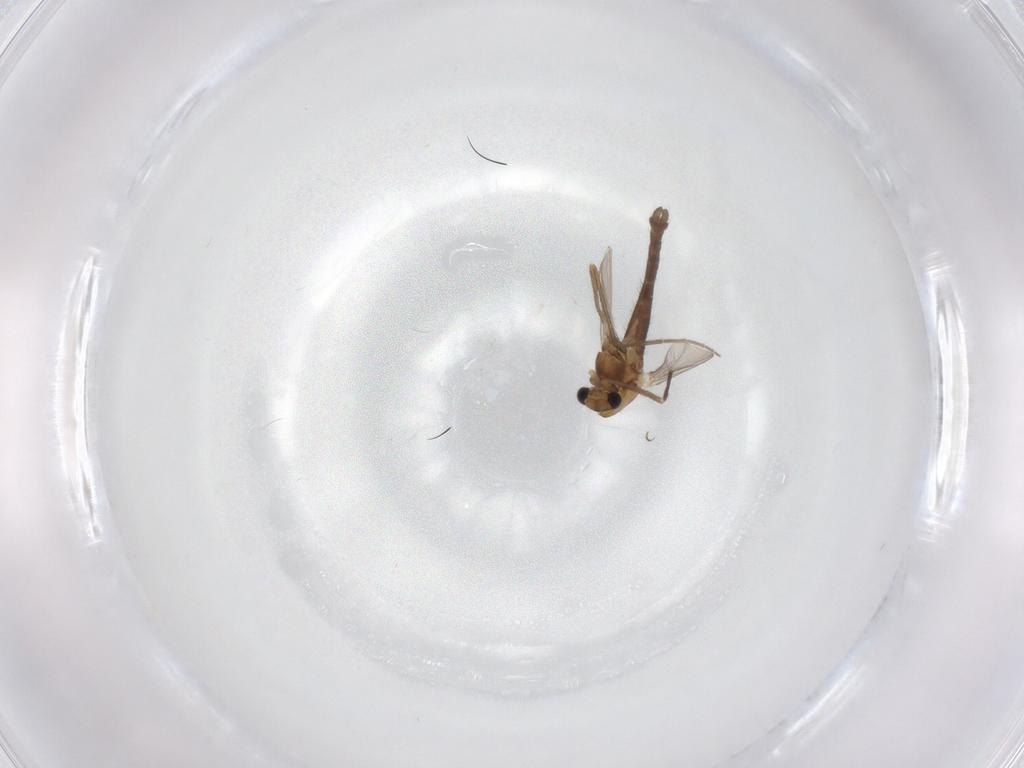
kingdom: Animalia
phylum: Arthropoda
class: Insecta
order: Diptera
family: Chironomidae
